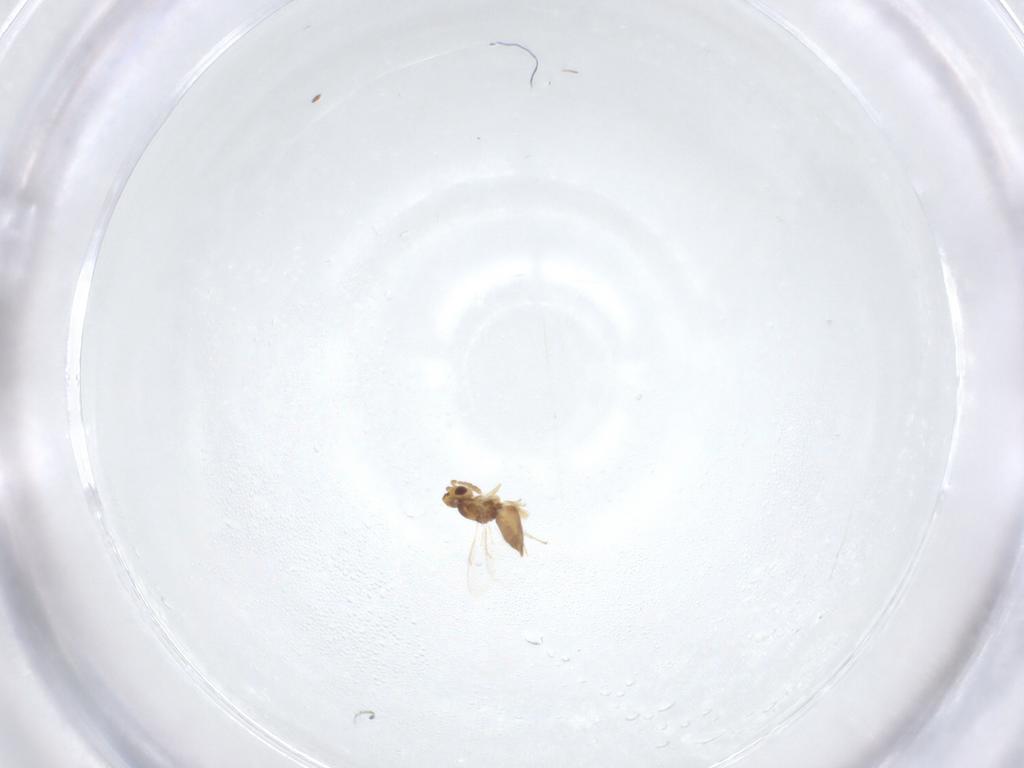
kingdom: Animalia
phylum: Arthropoda
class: Insecta
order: Hymenoptera
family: Eulophidae
